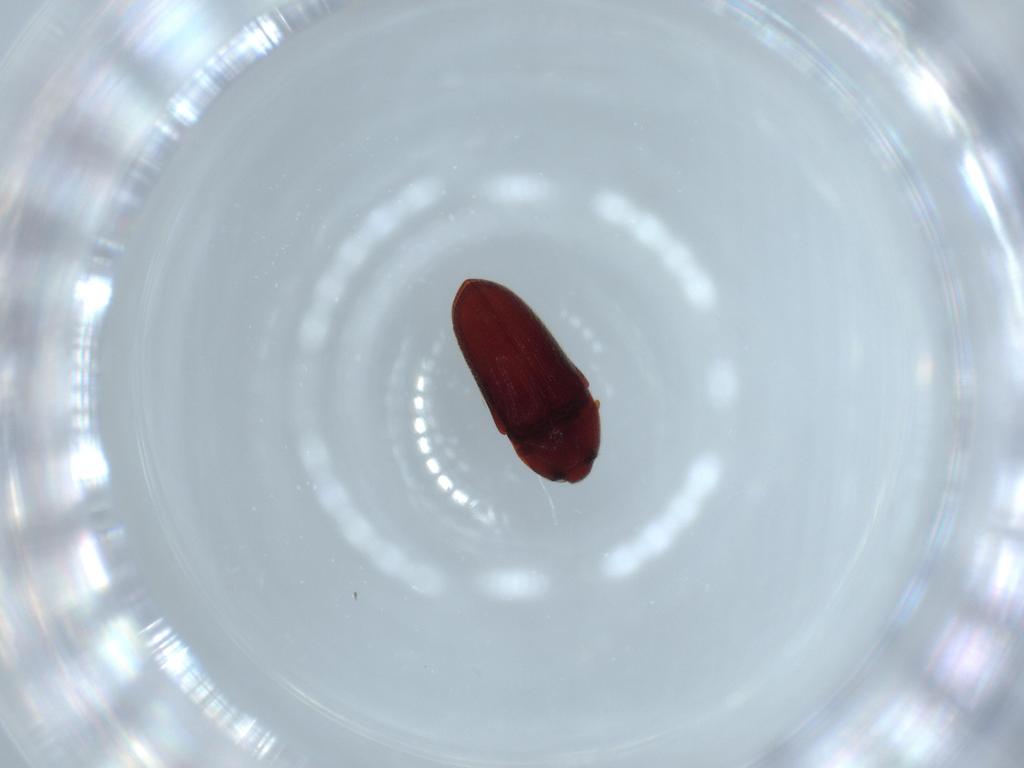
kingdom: Animalia
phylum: Arthropoda
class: Insecta
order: Coleoptera
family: Throscidae
